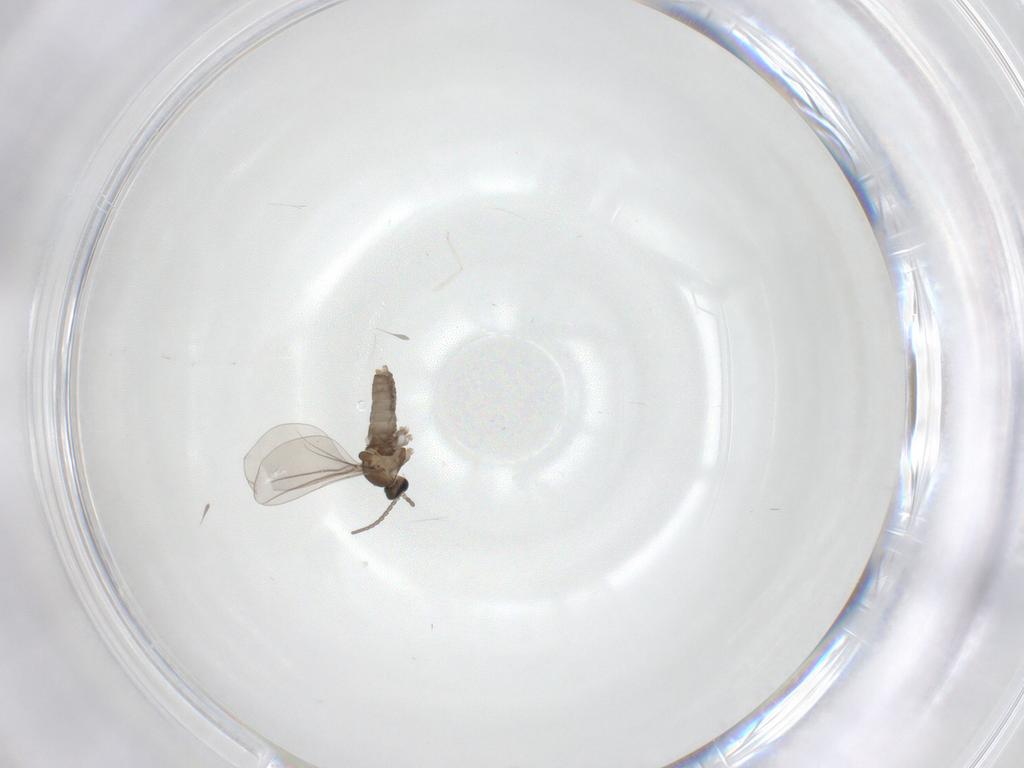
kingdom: Animalia
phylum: Arthropoda
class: Insecta
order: Diptera
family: Cecidomyiidae
